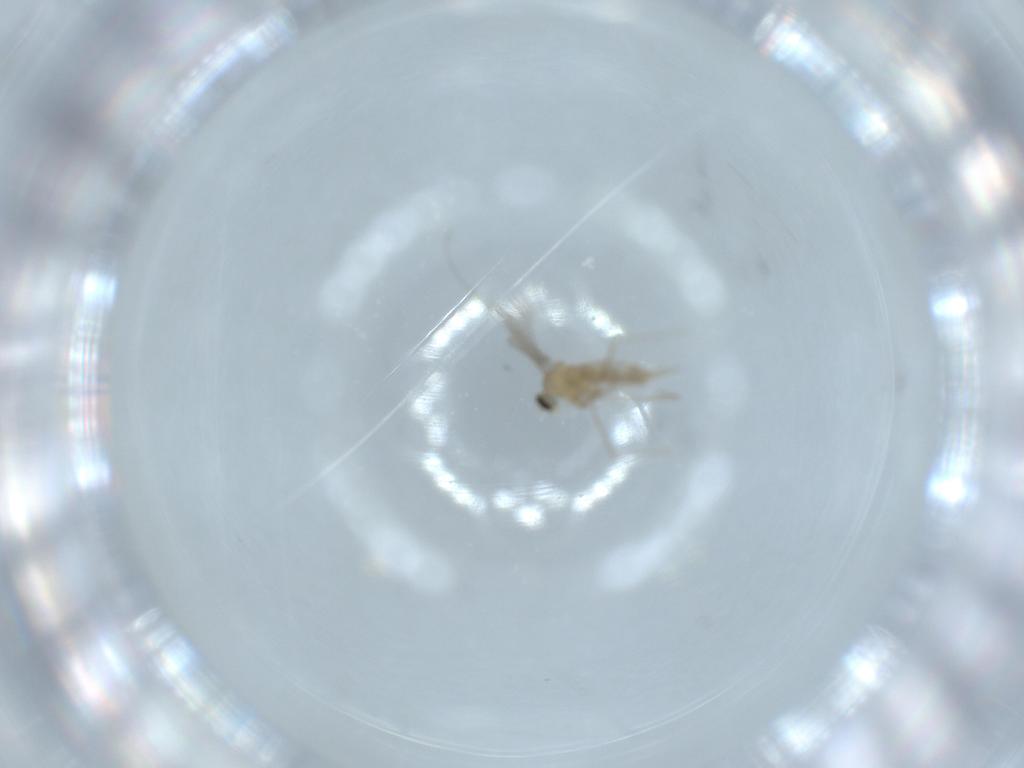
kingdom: Animalia
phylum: Arthropoda
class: Insecta
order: Diptera
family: Cecidomyiidae
